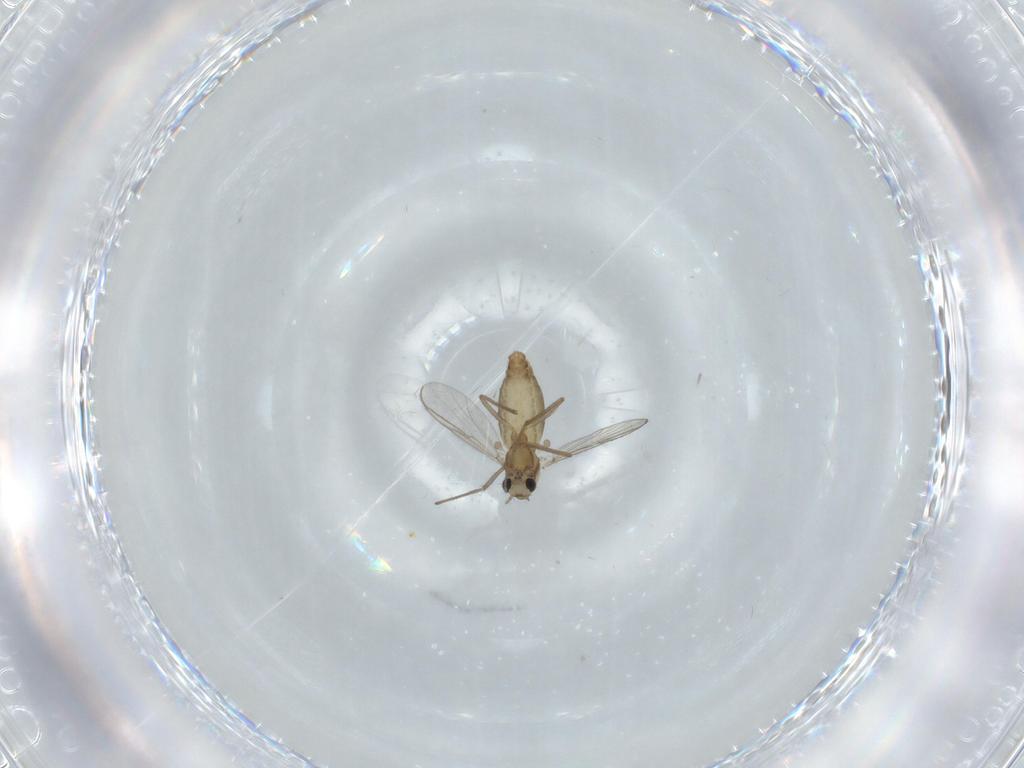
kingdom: Animalia
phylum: Arthropoda
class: Insecta
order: Diptera
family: Chironomidae
